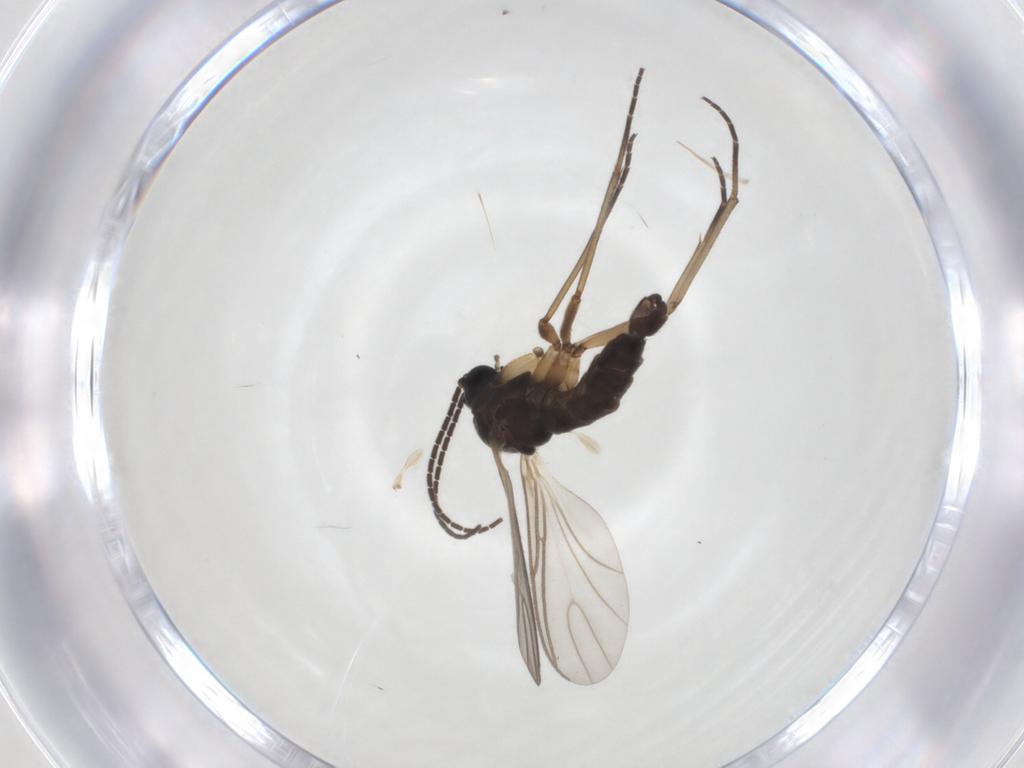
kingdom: Animalia
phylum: Arthropoda
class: Insecta
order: Diptera
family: Sciaridae
